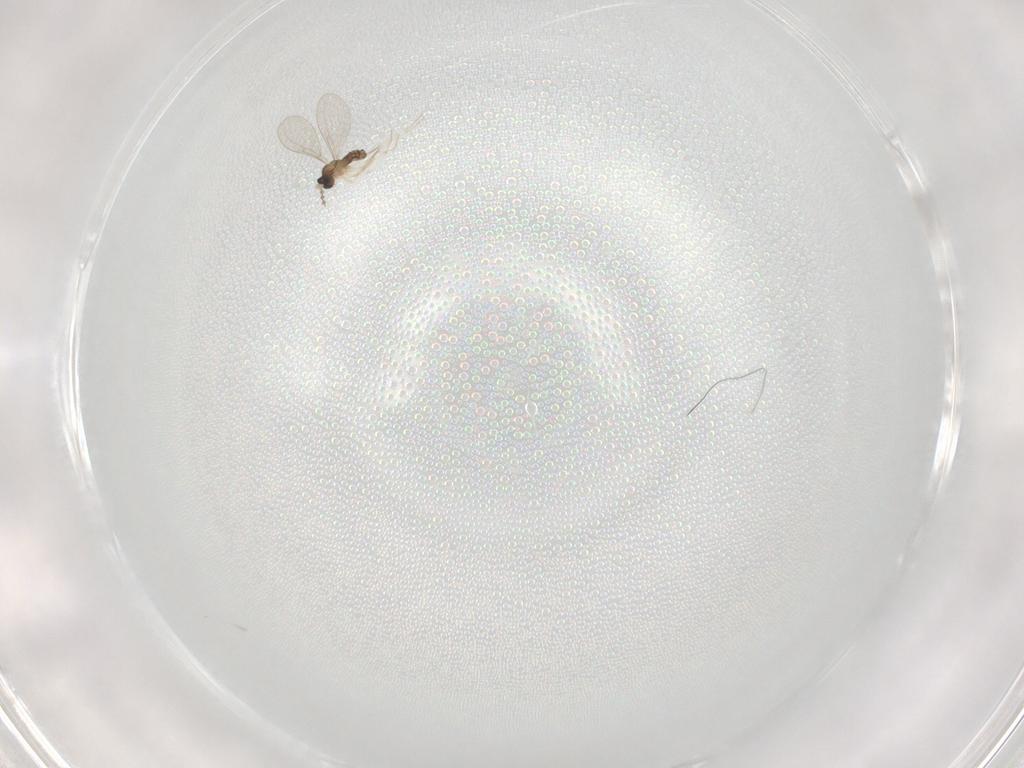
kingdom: Animalia
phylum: Arthropoda
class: Insecta
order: Diptera
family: Cecidomyiidae
